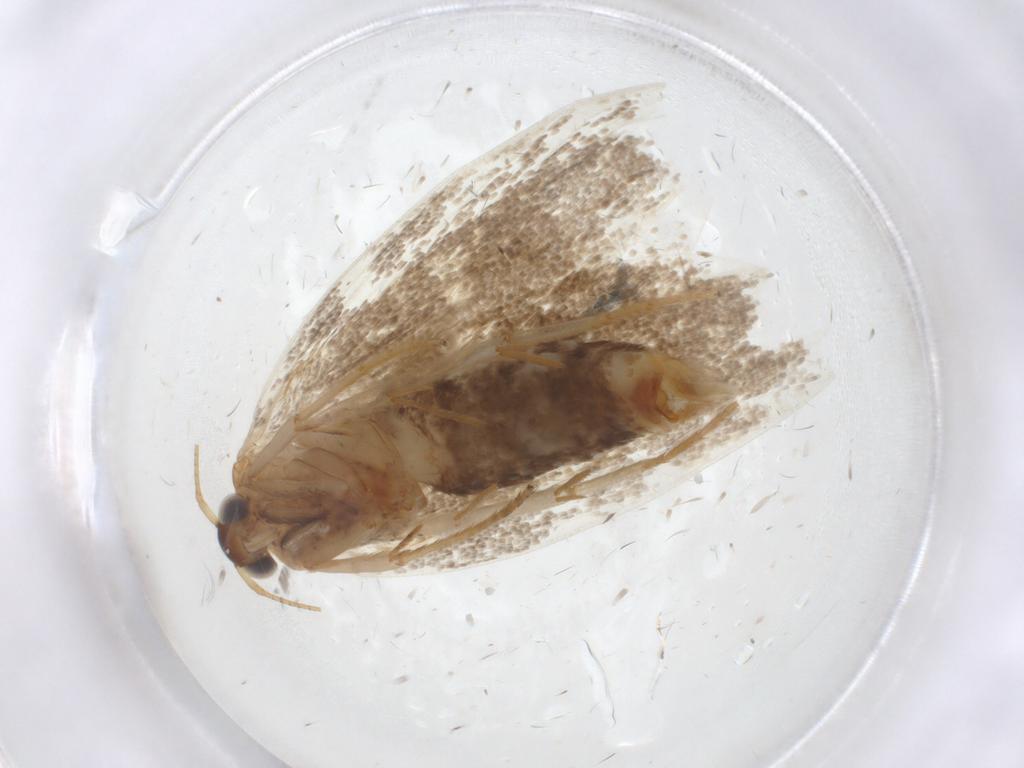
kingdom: Animalia
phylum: Arthropoda
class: Insecta
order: Lepidoptera
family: Oecophoridae
